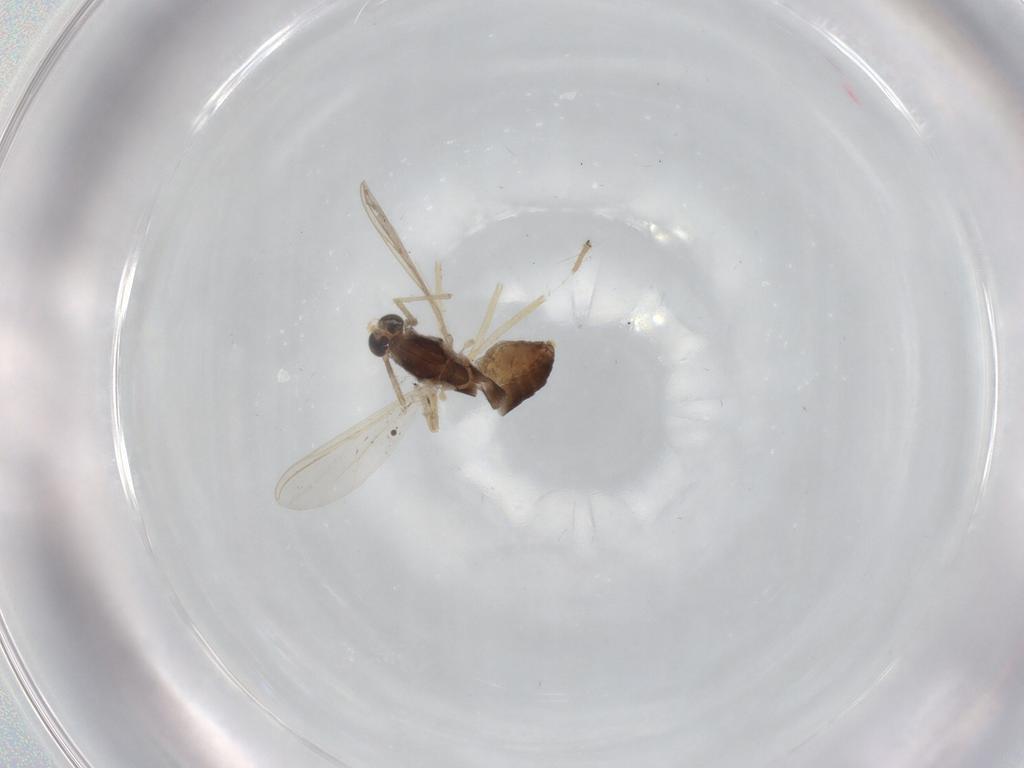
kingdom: Animalia
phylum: Arthropoda
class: Insecta
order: Diptera
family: Chironomidae
